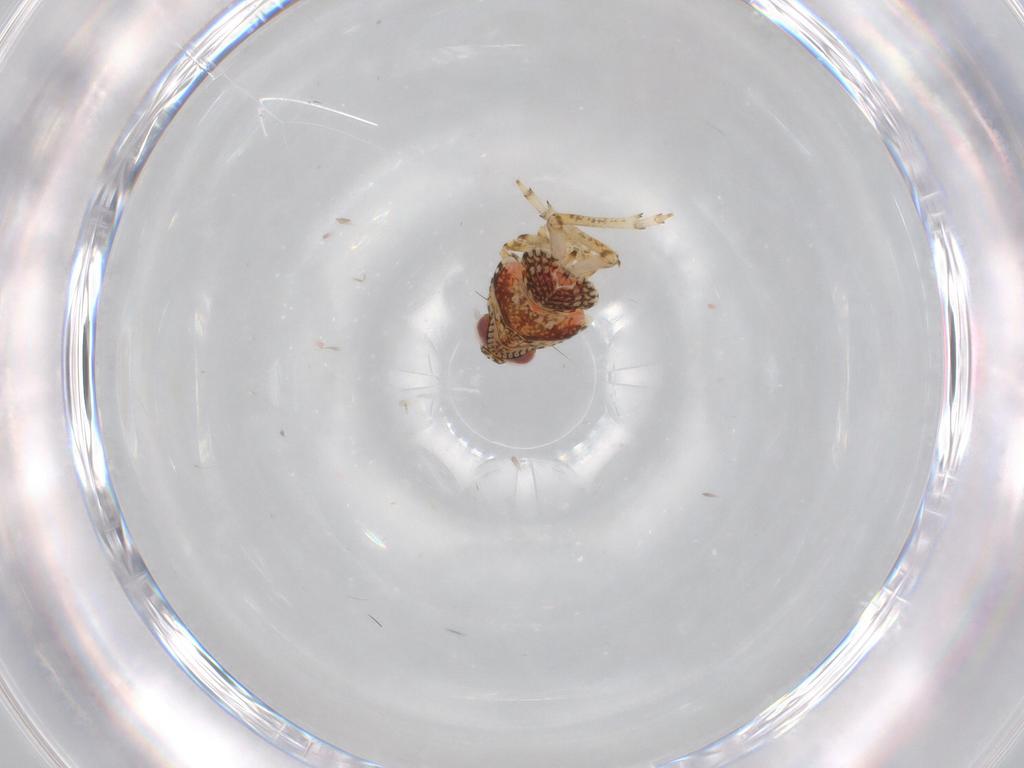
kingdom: Animalia
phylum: Arthropoda
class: Insecta
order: Hemiptera
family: Issidae
